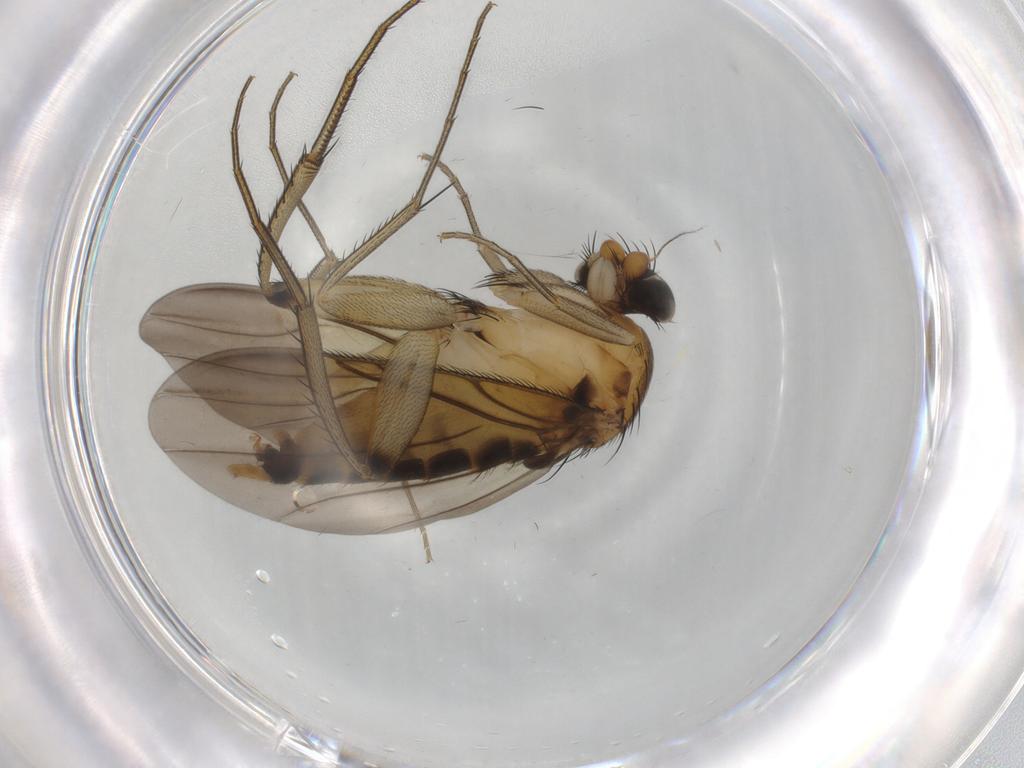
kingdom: Animalia
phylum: Arthropoda
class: Insecta
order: Diptera
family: Phoridae
